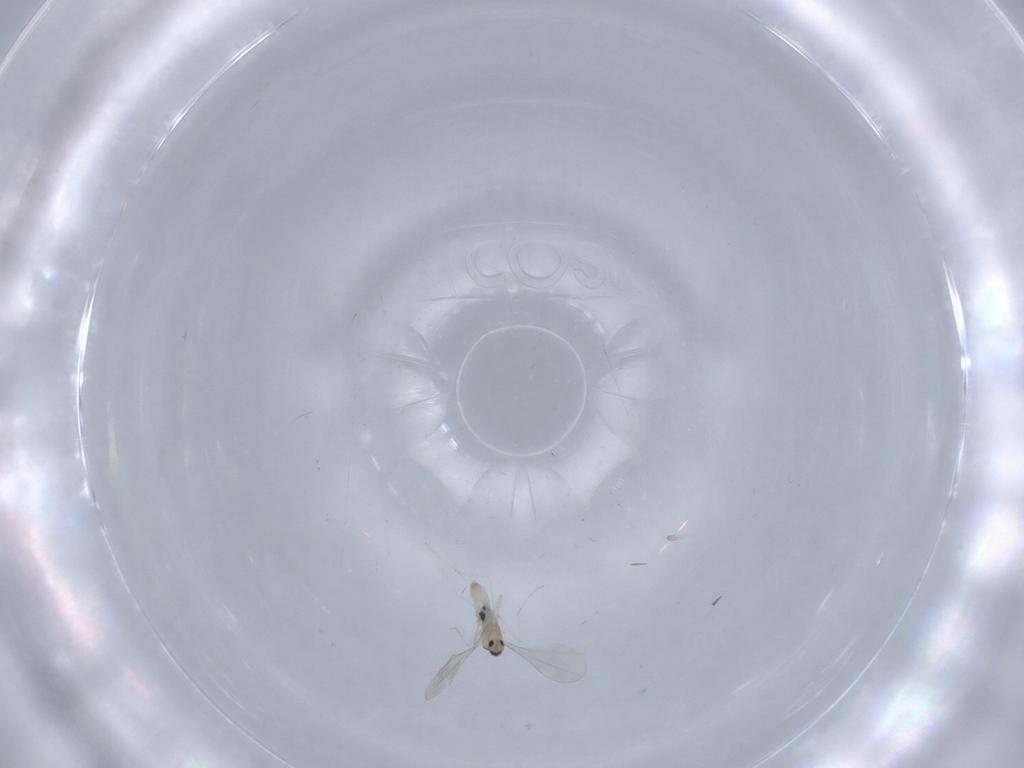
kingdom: Animalia
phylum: Arthropoda
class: Insecta
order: Diptera
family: Cecidomyiidae
